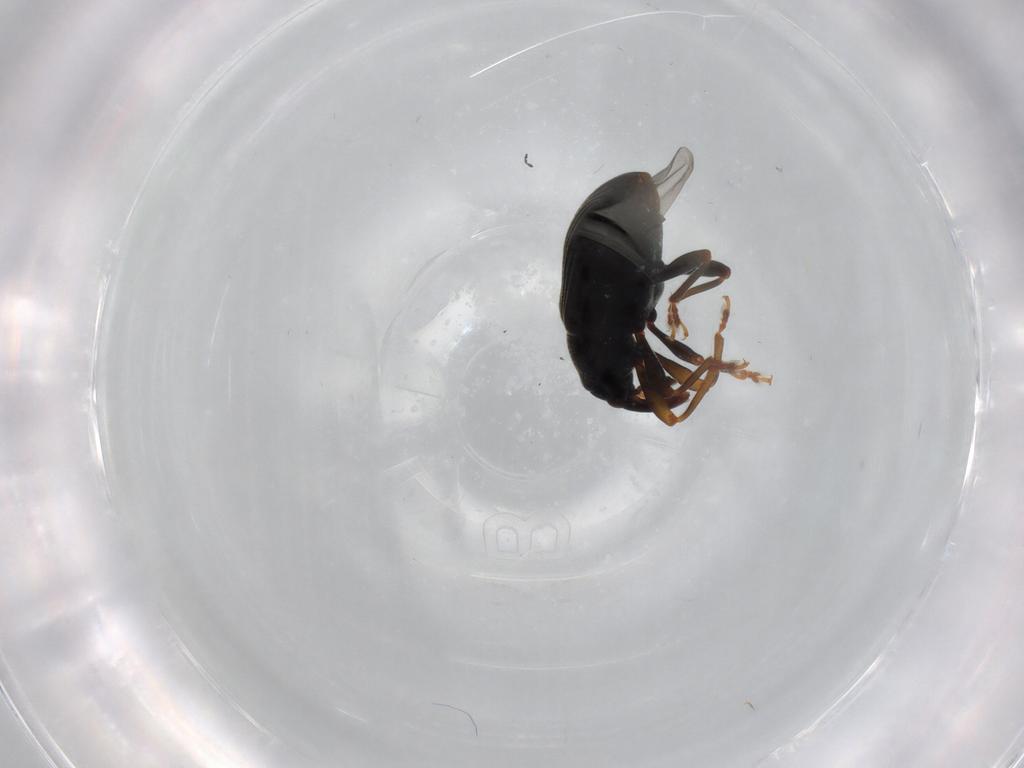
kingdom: Animalia
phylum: Arthropoda
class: Insecta
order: Coleoptera
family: Curculionidae
